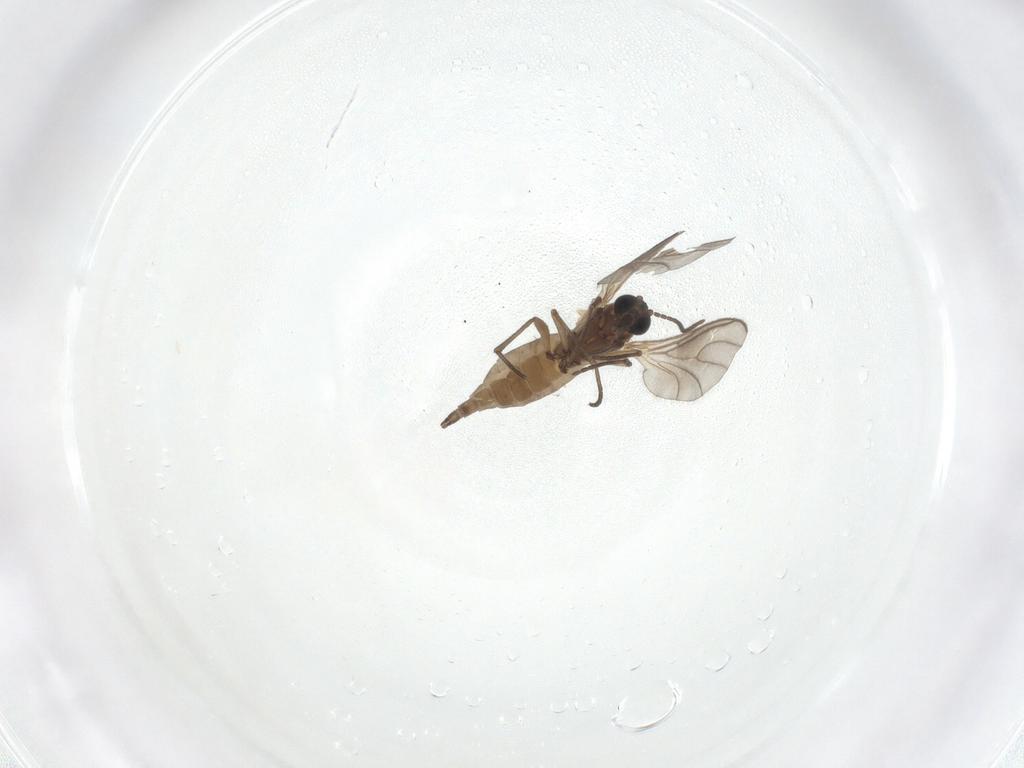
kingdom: Animalia
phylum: Arthropoda
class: Insecta
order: Diptera
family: Sciaridae
